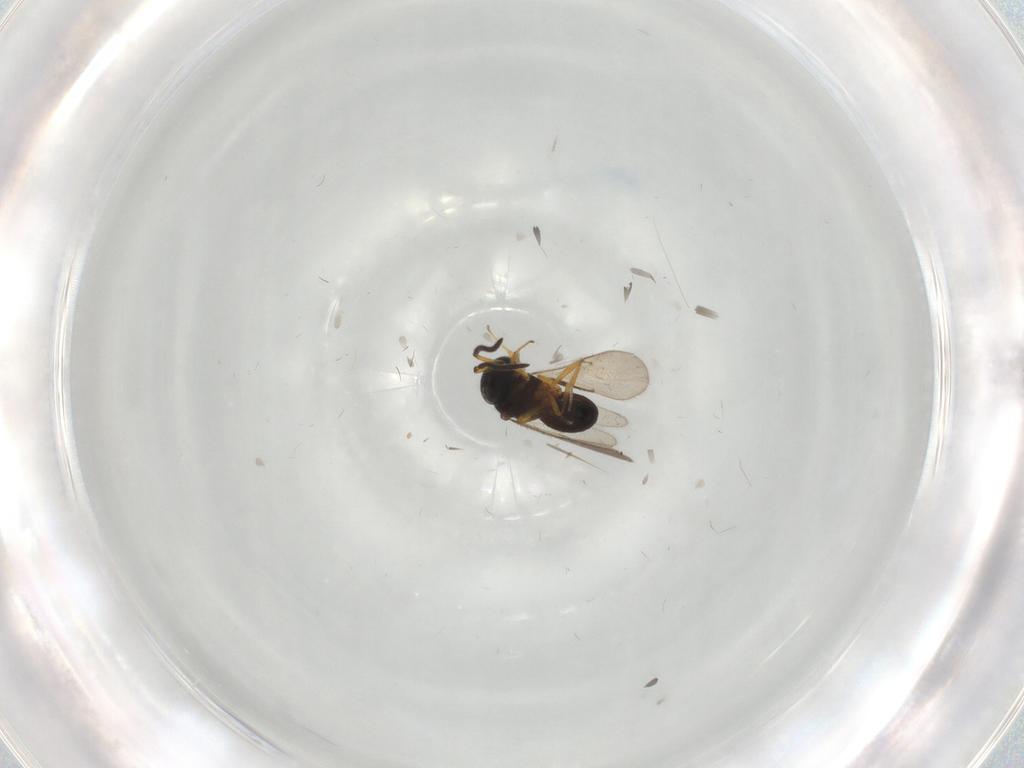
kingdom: Animalia
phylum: Arthropoda
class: Insecta
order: Hymenoptera
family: Scelionidae
